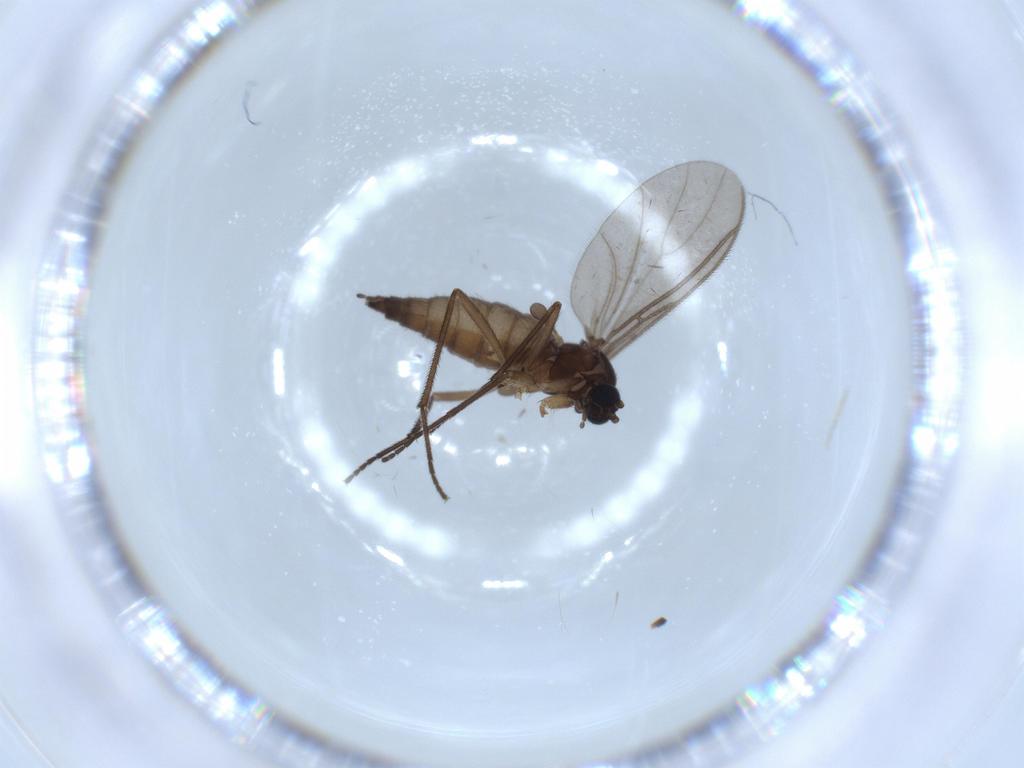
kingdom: Animalia
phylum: Arthropoda
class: Insecta
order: Diptera
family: Sciaridae
